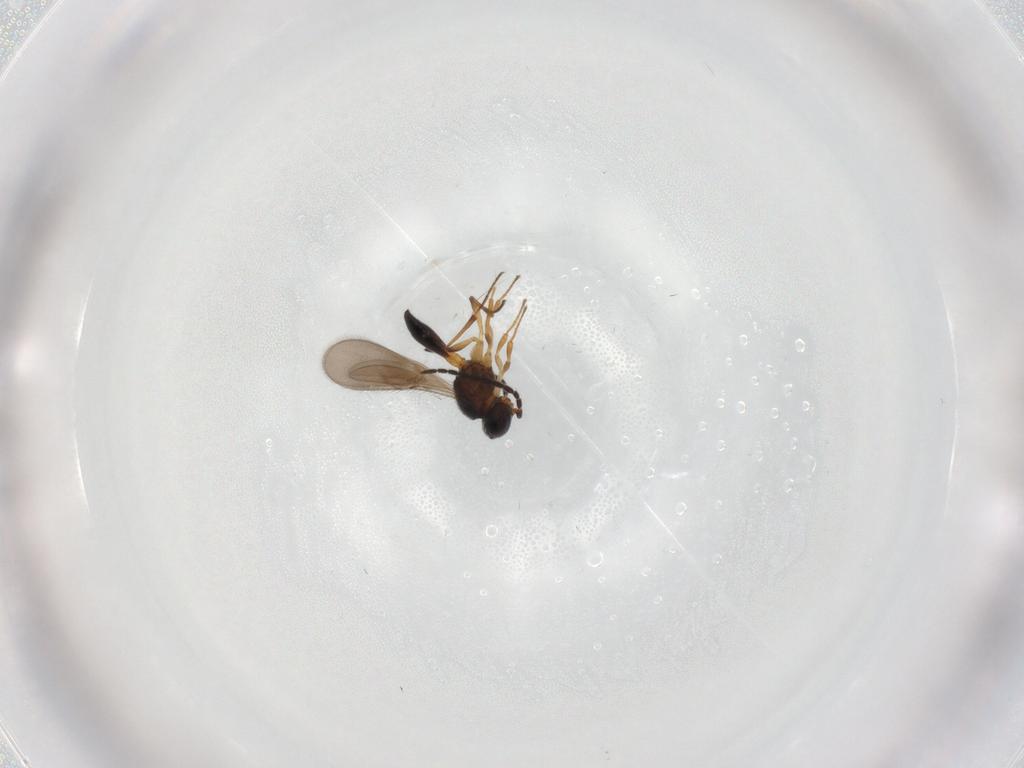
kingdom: Animalia
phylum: Arthropoda
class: Insecta
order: Hymenoptera
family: Scelionidae
